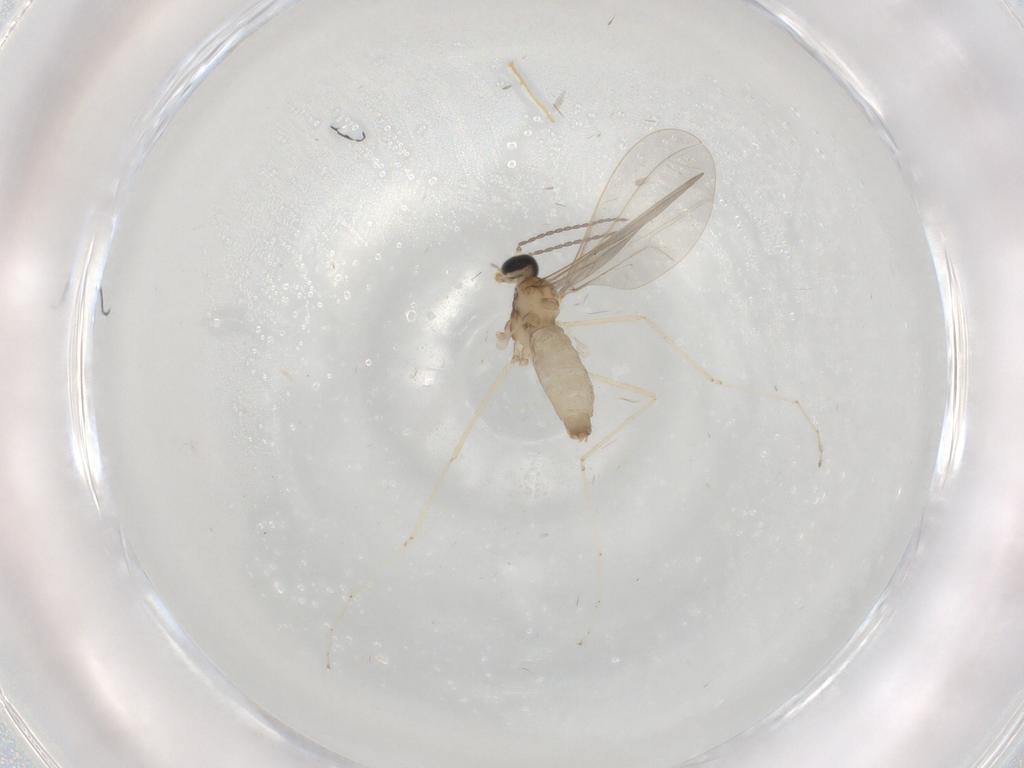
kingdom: Animalia
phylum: Arthropoda
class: Insecta
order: Diptera
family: Cecidomyiidae
